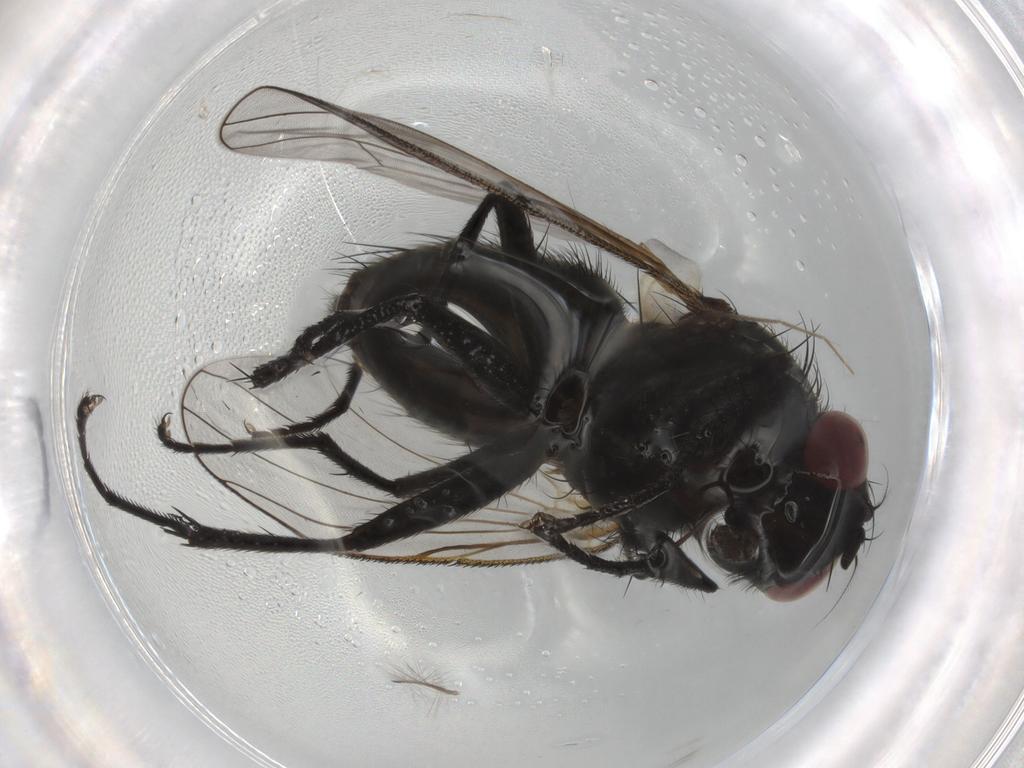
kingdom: Animalia
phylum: Arthropoda
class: Insecta
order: Diptera
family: Muscidae
